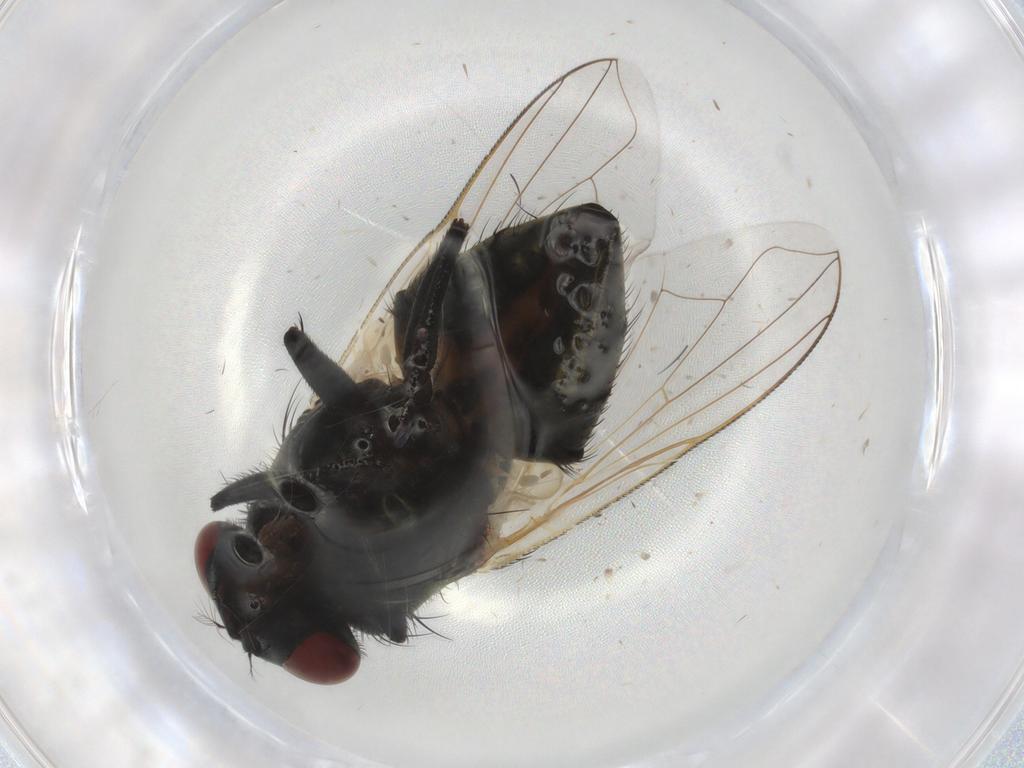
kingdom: Animalia
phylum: Arthropoda
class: Insecta
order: Diptera
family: Muscidae
